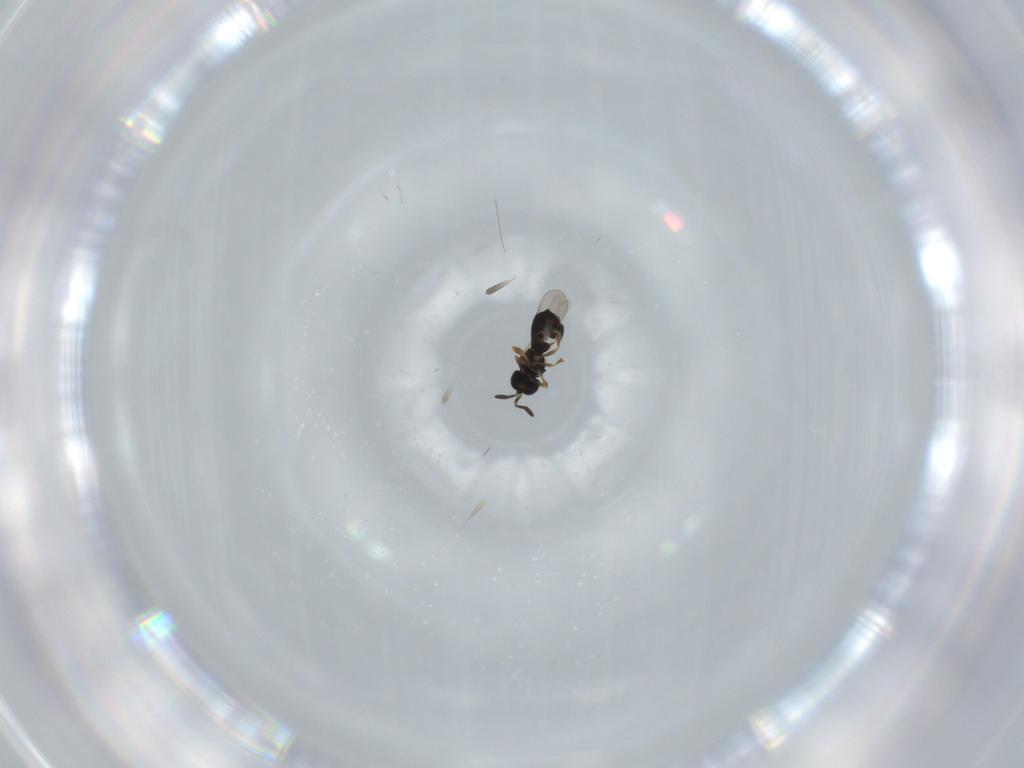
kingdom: Animalia
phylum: Arthropoda
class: Insecta
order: Hymenoptera
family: Scelionidae
